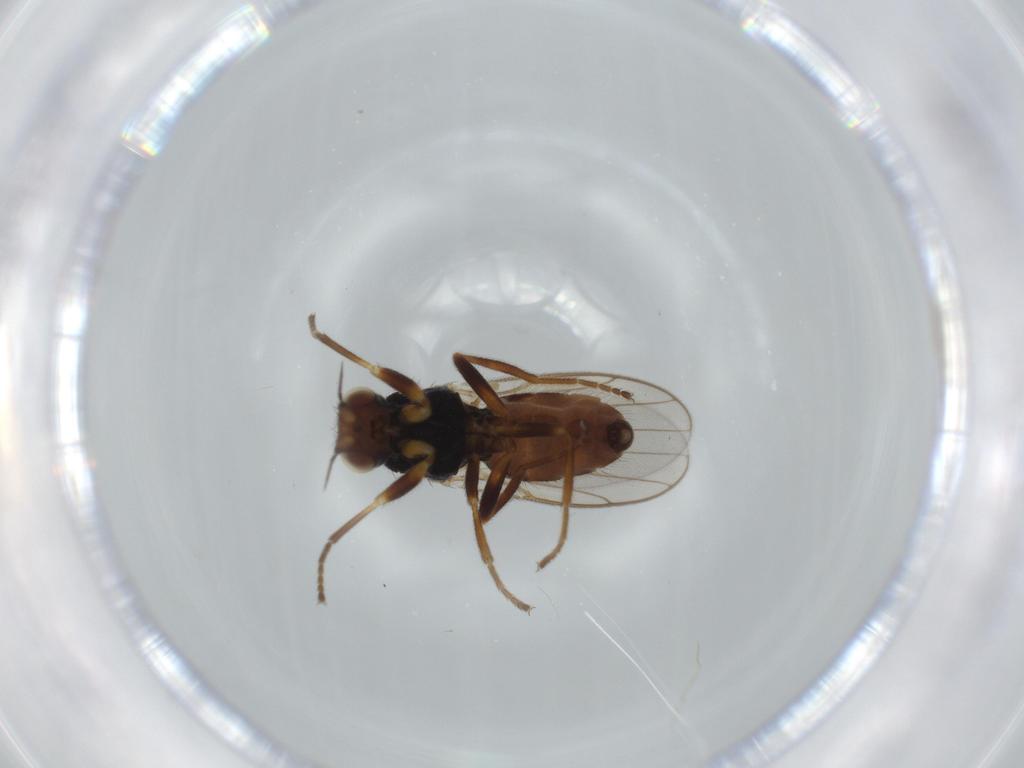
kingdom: Animalia
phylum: Arthropoda
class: Insecta
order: Diptera
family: Chloropidae
